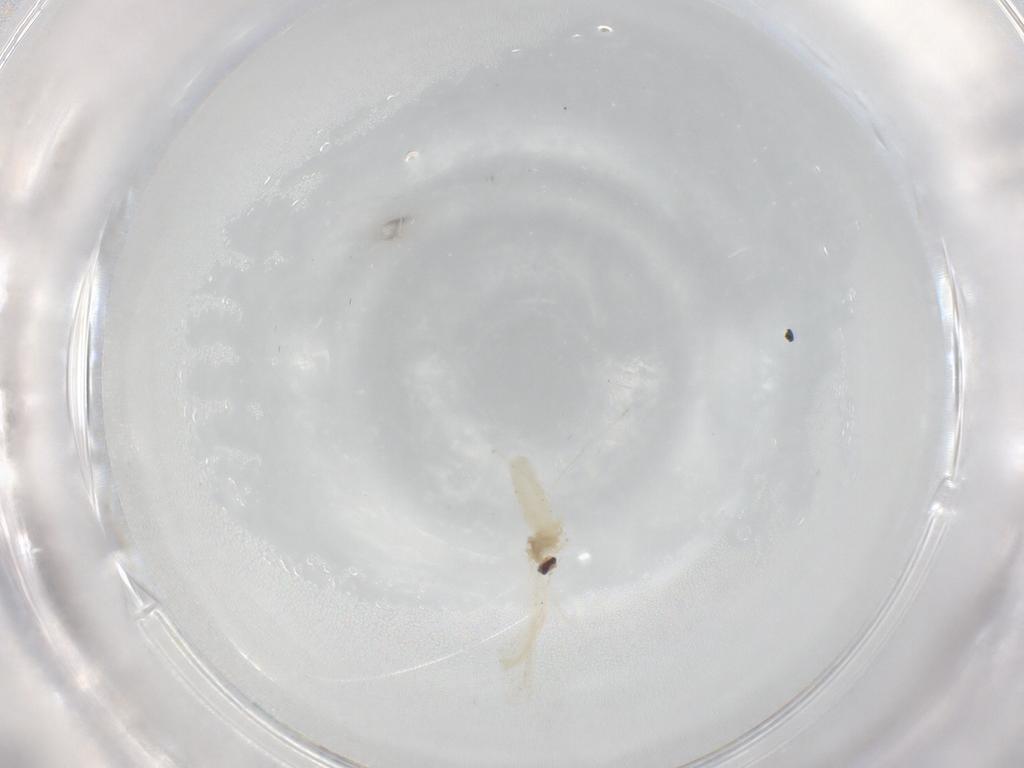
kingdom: Animalia
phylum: Arthropoda
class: Insecta
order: Diptera
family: Cecidomyiidae
